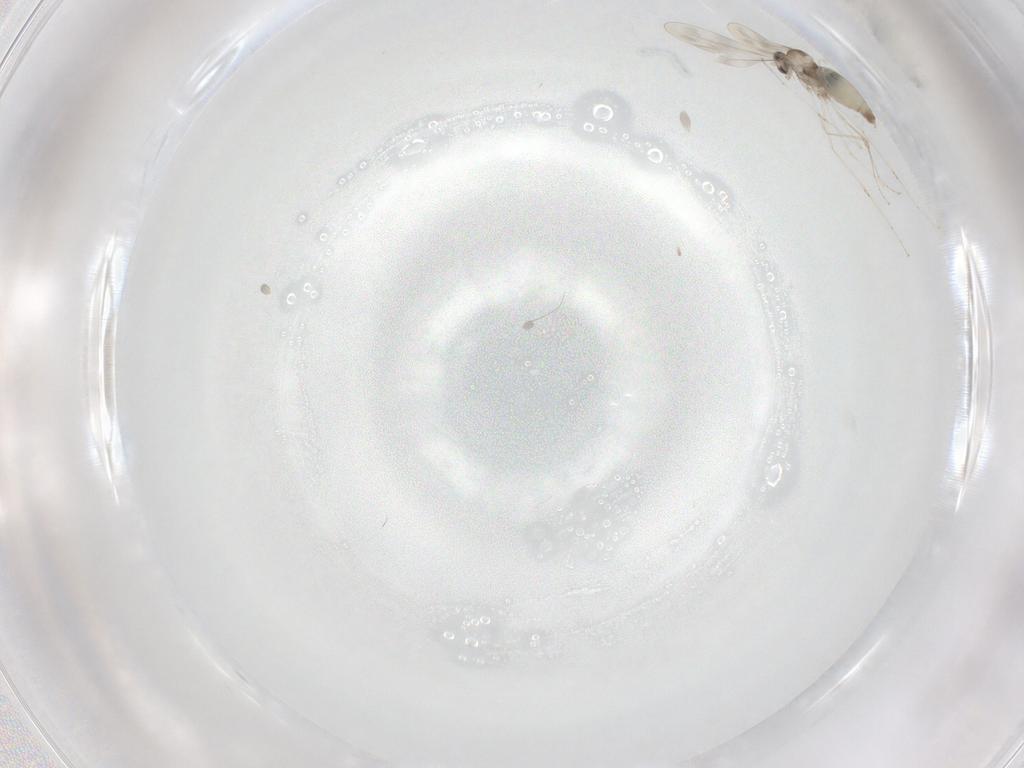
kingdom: Animalia
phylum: Arthropoda
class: Insecta
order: Diptera
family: Cecidomyiidae
